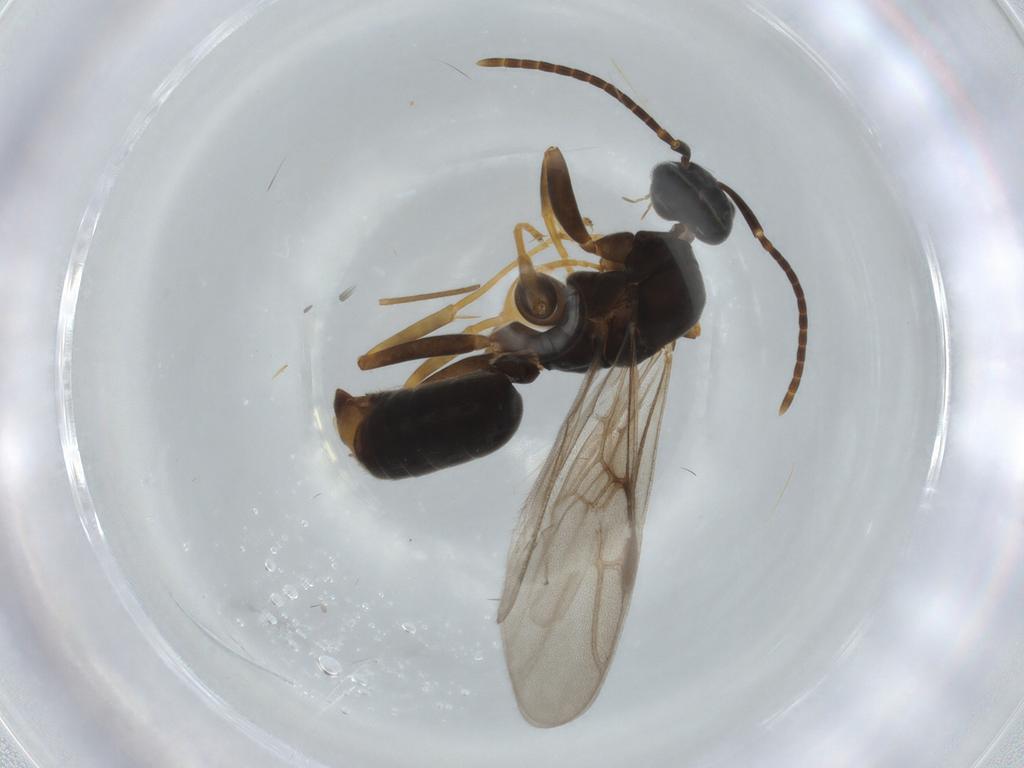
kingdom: Animalia
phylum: Arthropoda
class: Insecta
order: Hymenoptera
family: Formicidae
